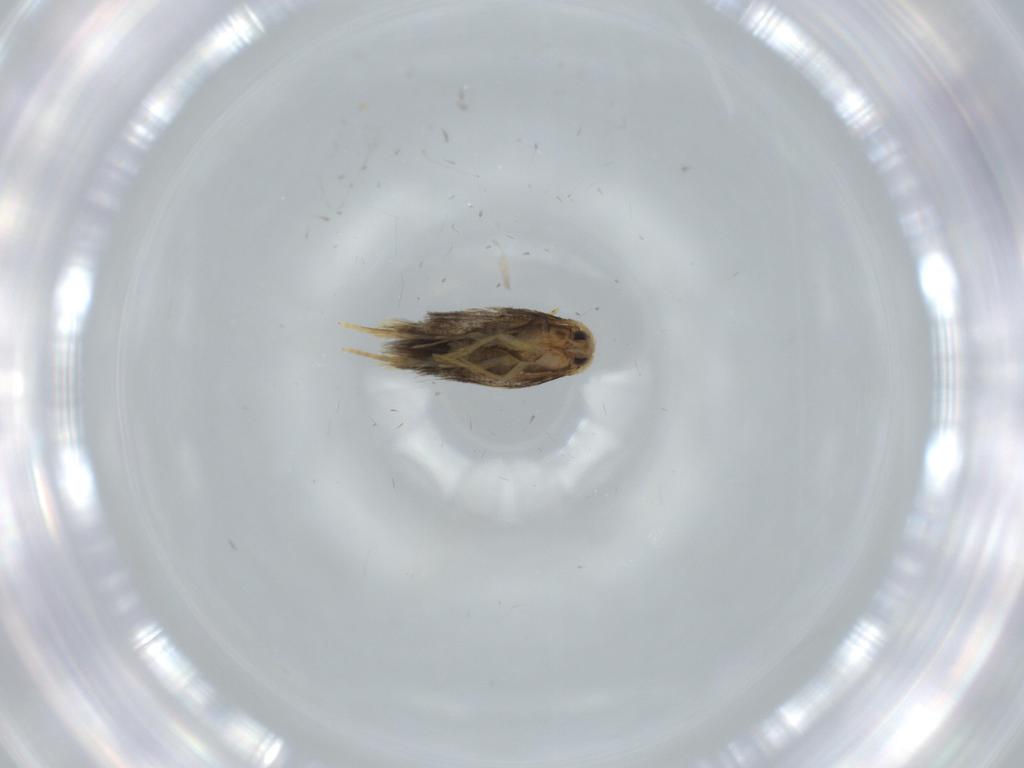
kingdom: Animalia
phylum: Arthropoda
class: Insecta
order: Lepidoptera
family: Copromorphidae
